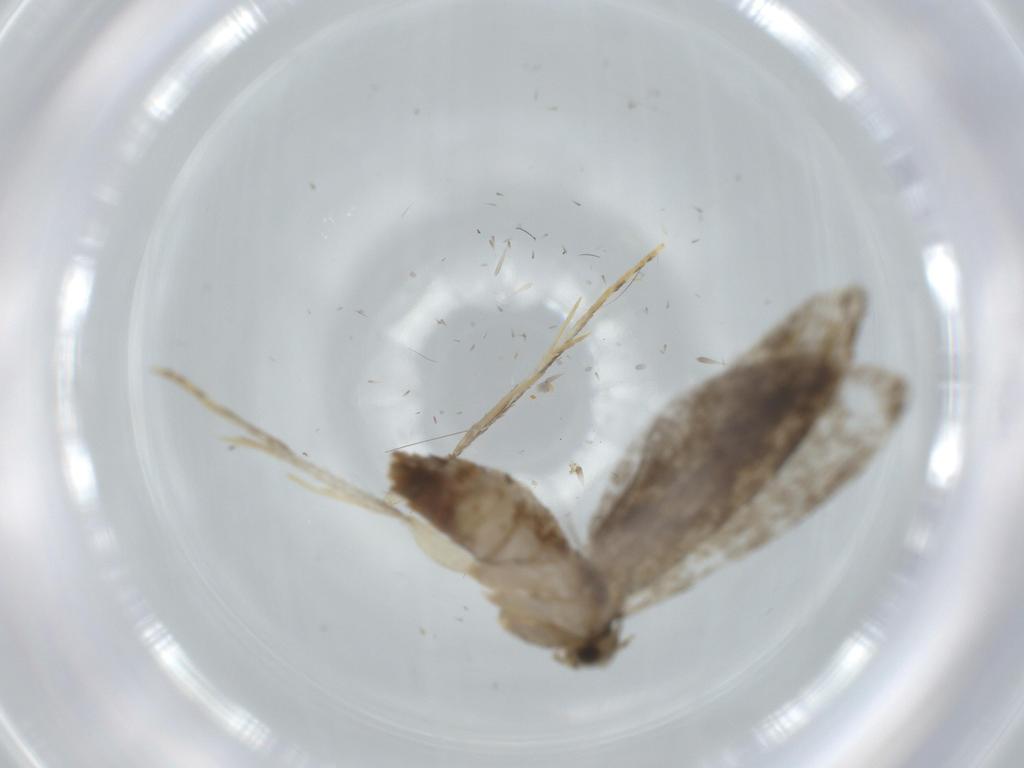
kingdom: Animalia
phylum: Arthropoda
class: Insecta
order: Lepidoptera
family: Tineidae
